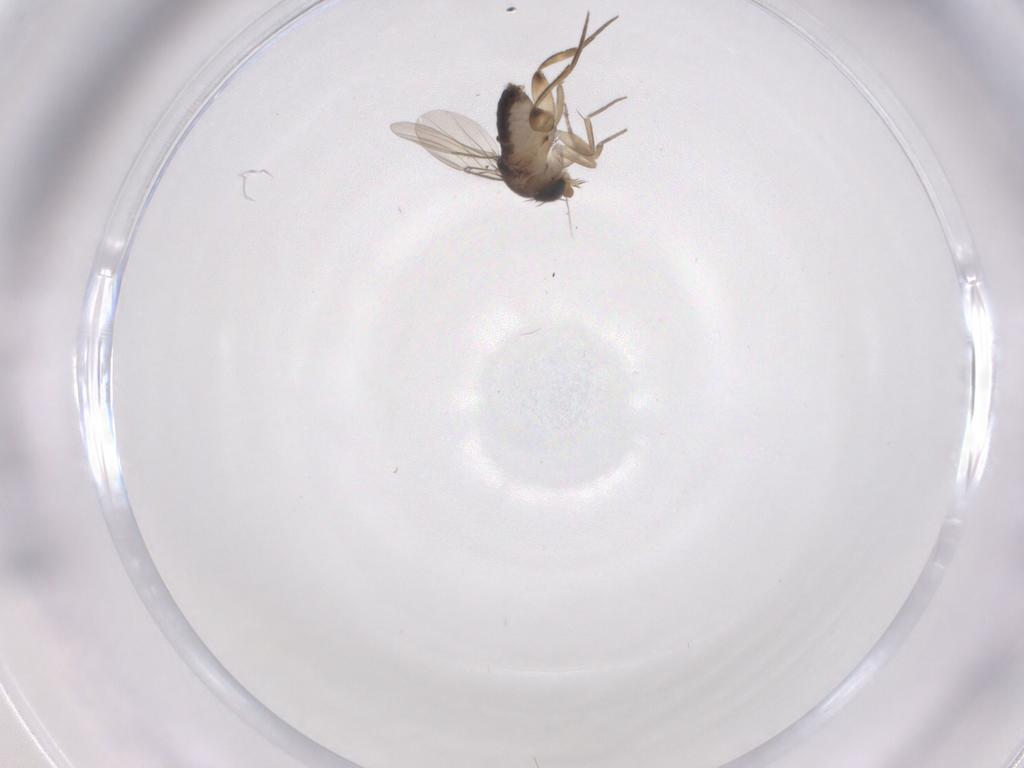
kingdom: Animalia
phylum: Arthropoda
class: Insecta
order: Diptera
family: Phoridae
